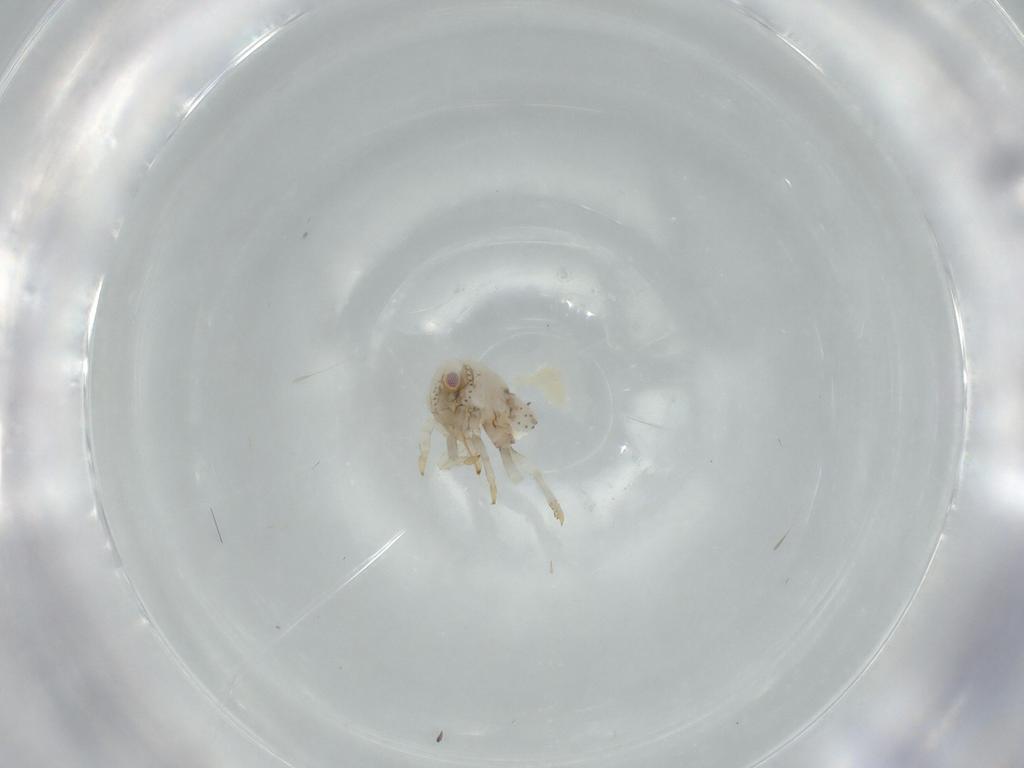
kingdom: Animalia
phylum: Arthropoda
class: Insecta
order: Hemiptera
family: Acanaloniidae
